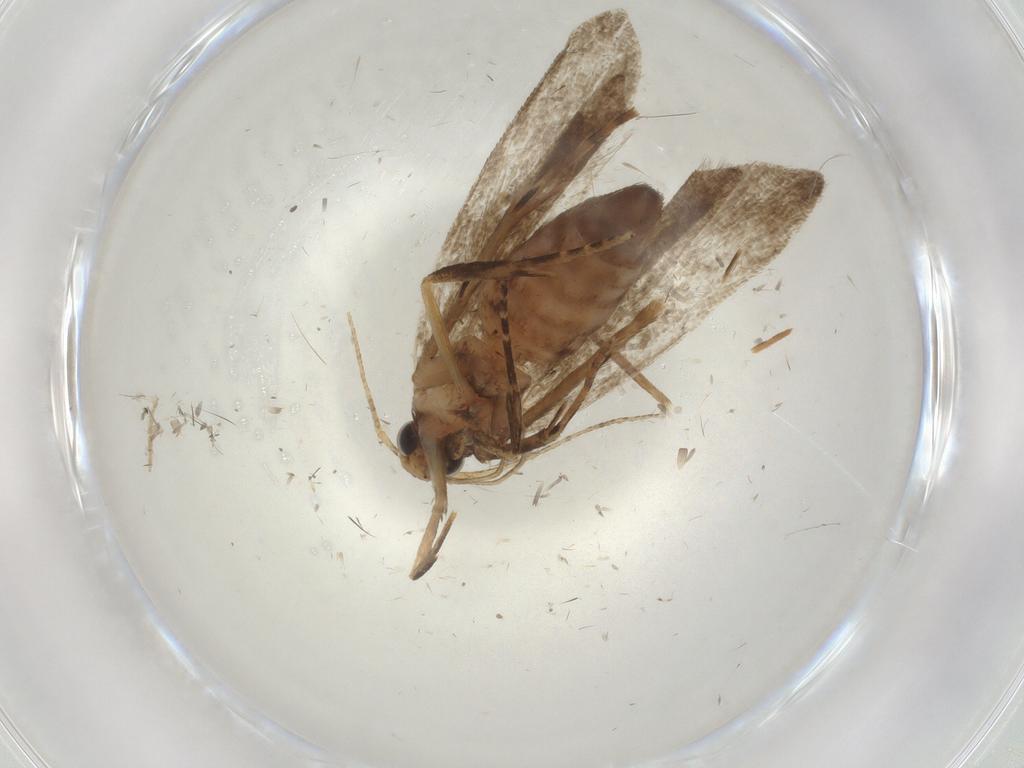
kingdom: Animalia
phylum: Arthropoda
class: Insecta
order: Lepidoptera
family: Gelechiidae
